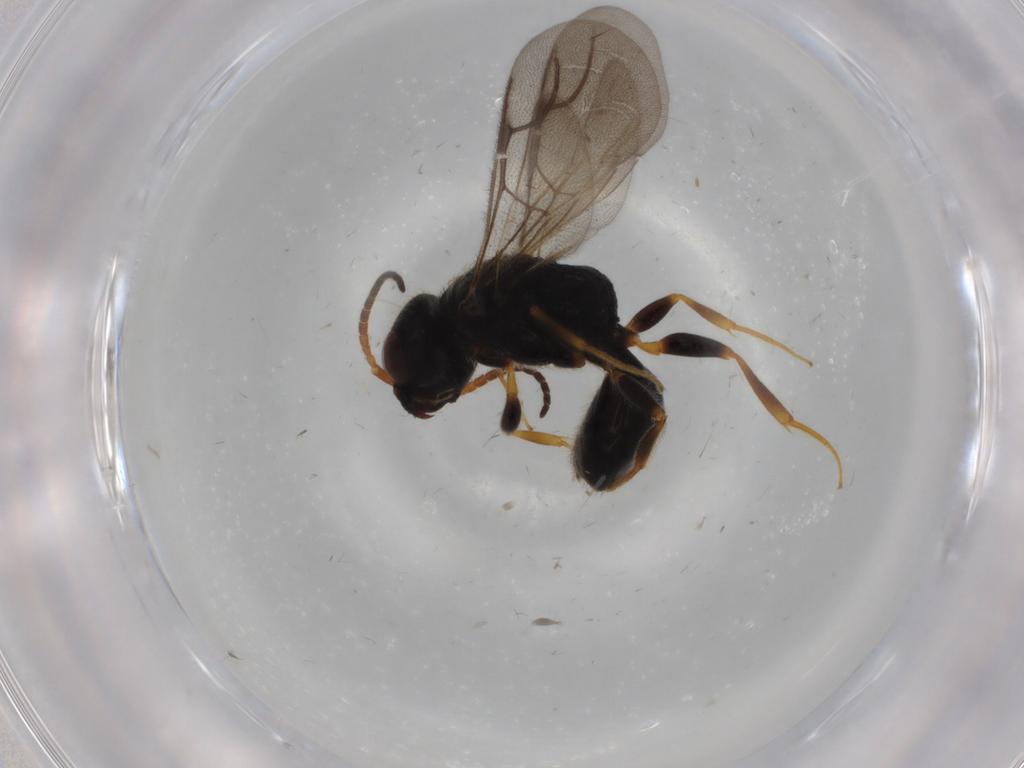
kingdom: Animalia
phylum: Arthropoda
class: Insecta
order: Hymenoptera
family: Bethylidae
